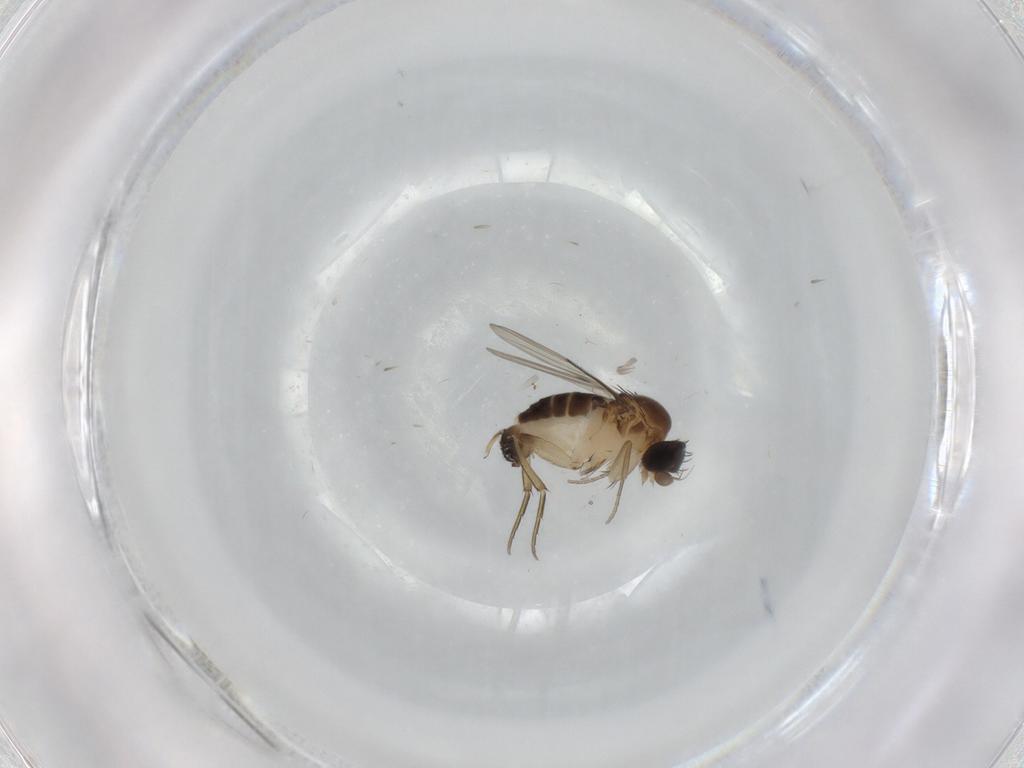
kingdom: Animalia
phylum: Arthropoda
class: Insecta
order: Diptera
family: Phoridae
